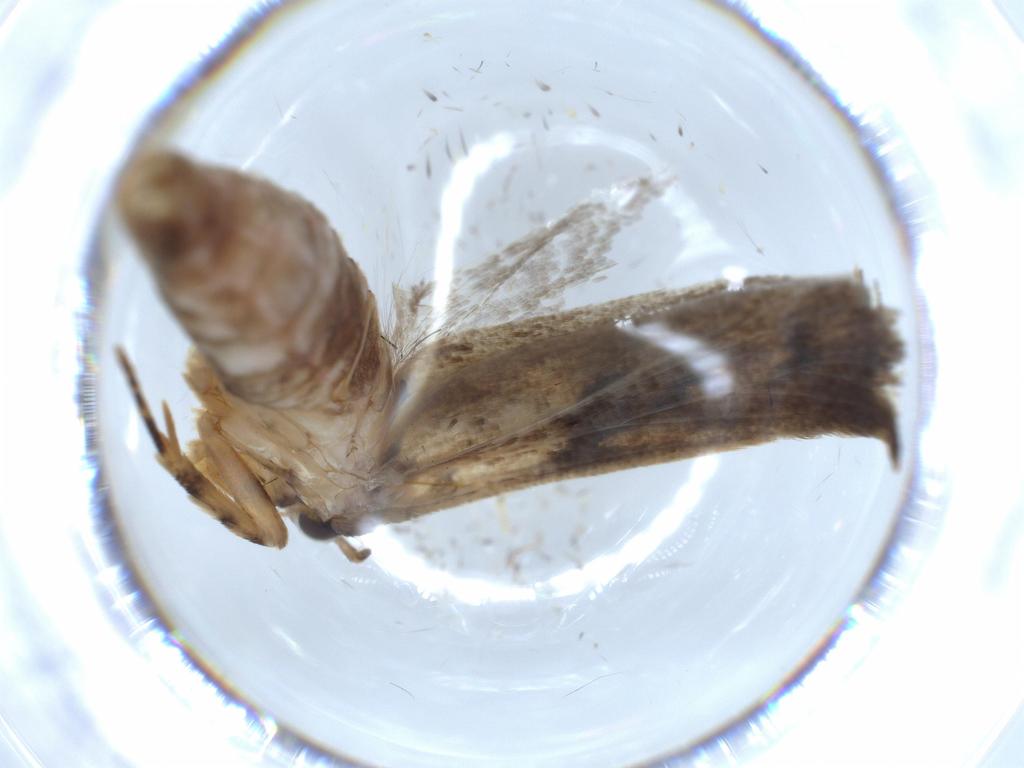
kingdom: Animalia
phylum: Arthropoda
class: Insecta
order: Lepidoptera
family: Gelechiidae
